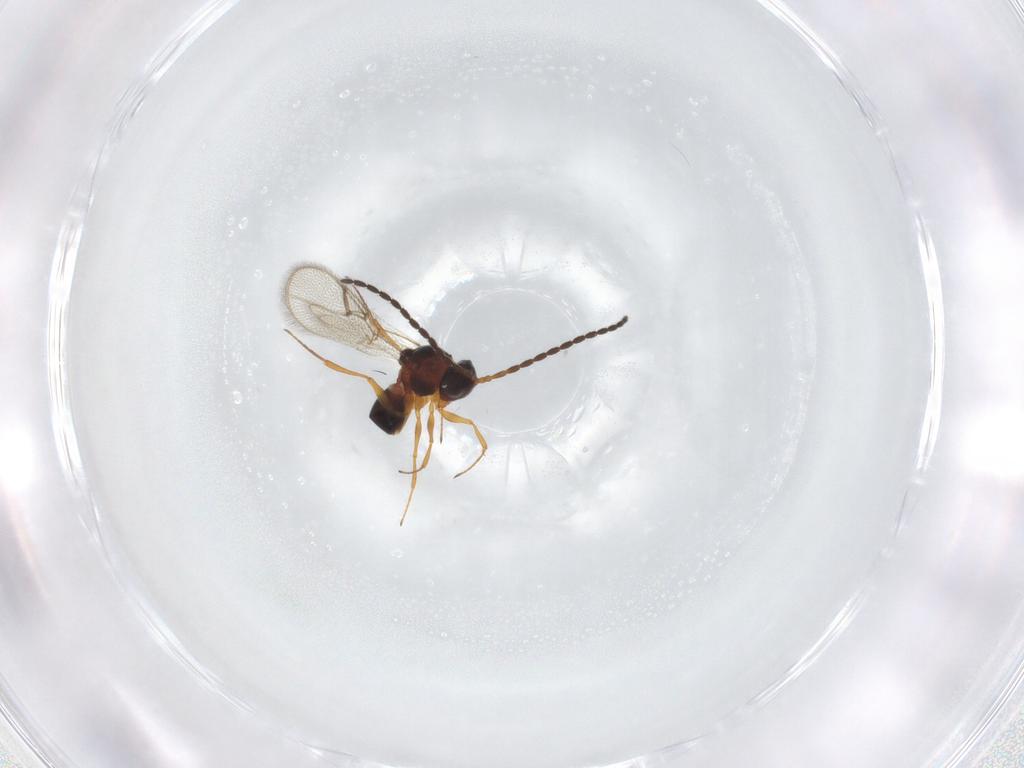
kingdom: Animalia
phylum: Arthropoda
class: Insecta
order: Hymenoptera
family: Figitidae
